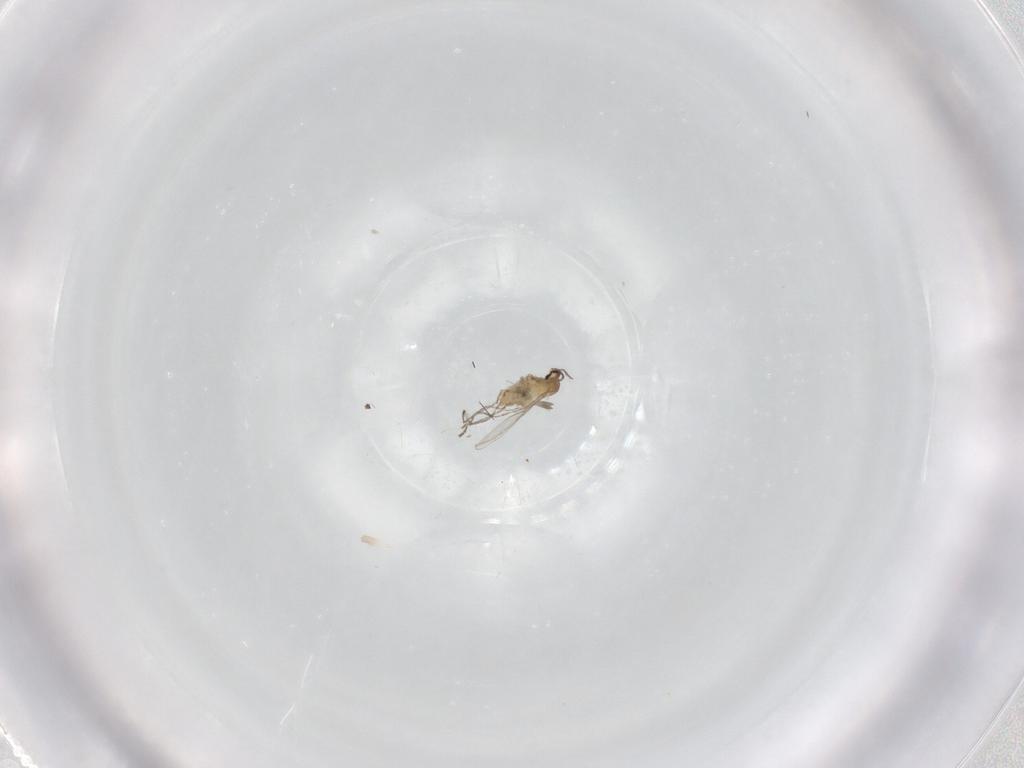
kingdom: Animalia
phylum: Arthropoda
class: Insecta
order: Diptera
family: Cecidomyiidae
